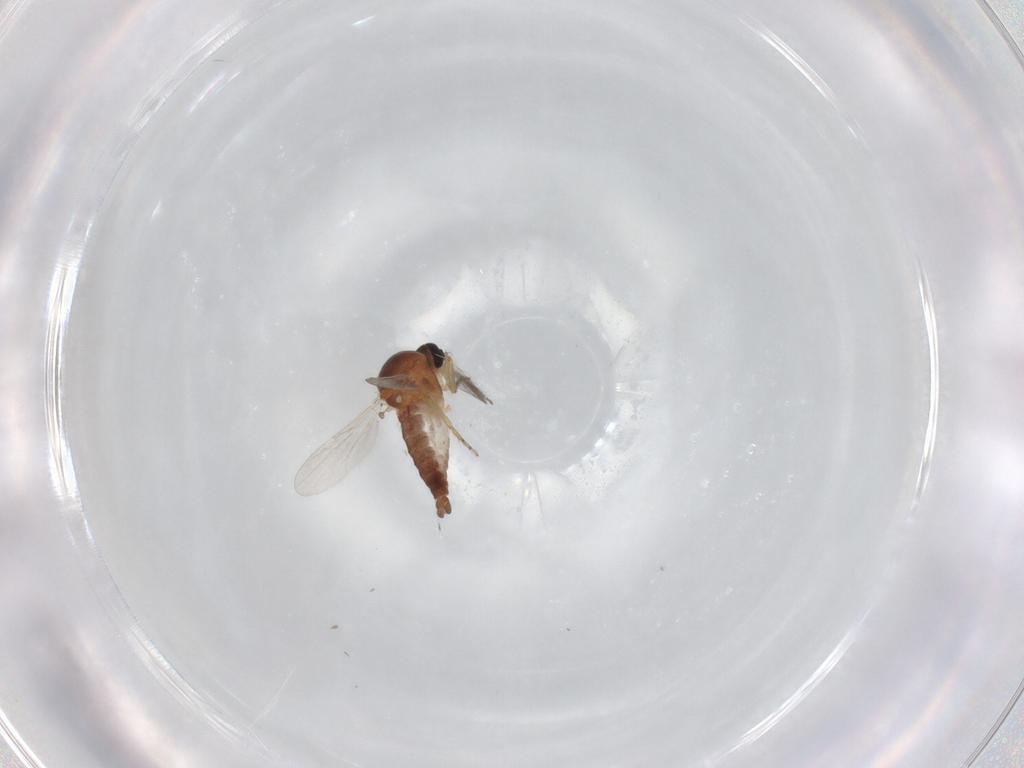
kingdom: Animalia
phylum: Arthropoda
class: Insecta
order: Diptera
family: Ceratopogonidae
